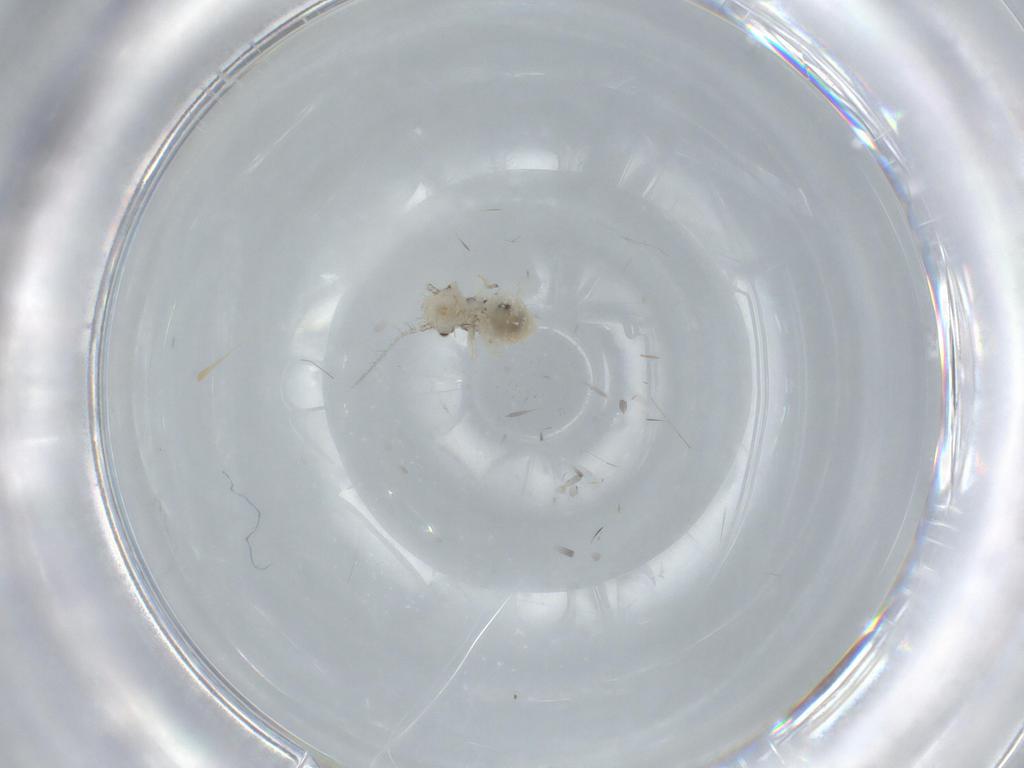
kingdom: Animalia
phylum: Arthropoda
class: Insecta
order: Psocodea
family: Pseudocaeciliidae
